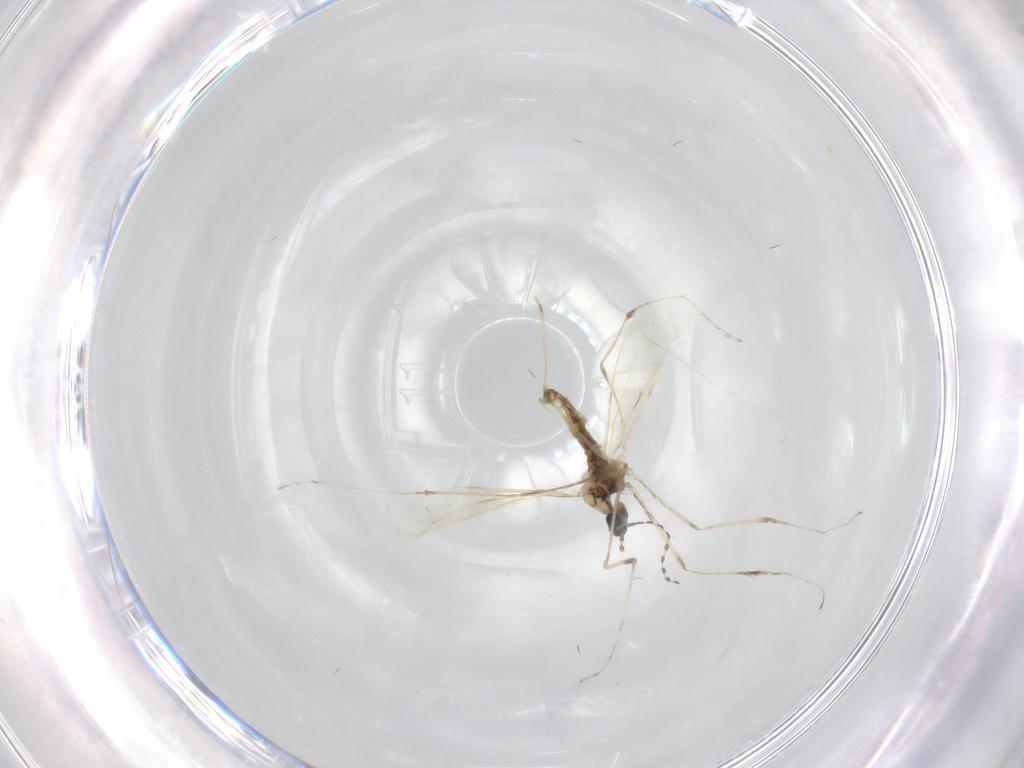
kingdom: Animalia
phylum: Arthropoda
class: Insecta
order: Diptera
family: Cecidomyiidae
